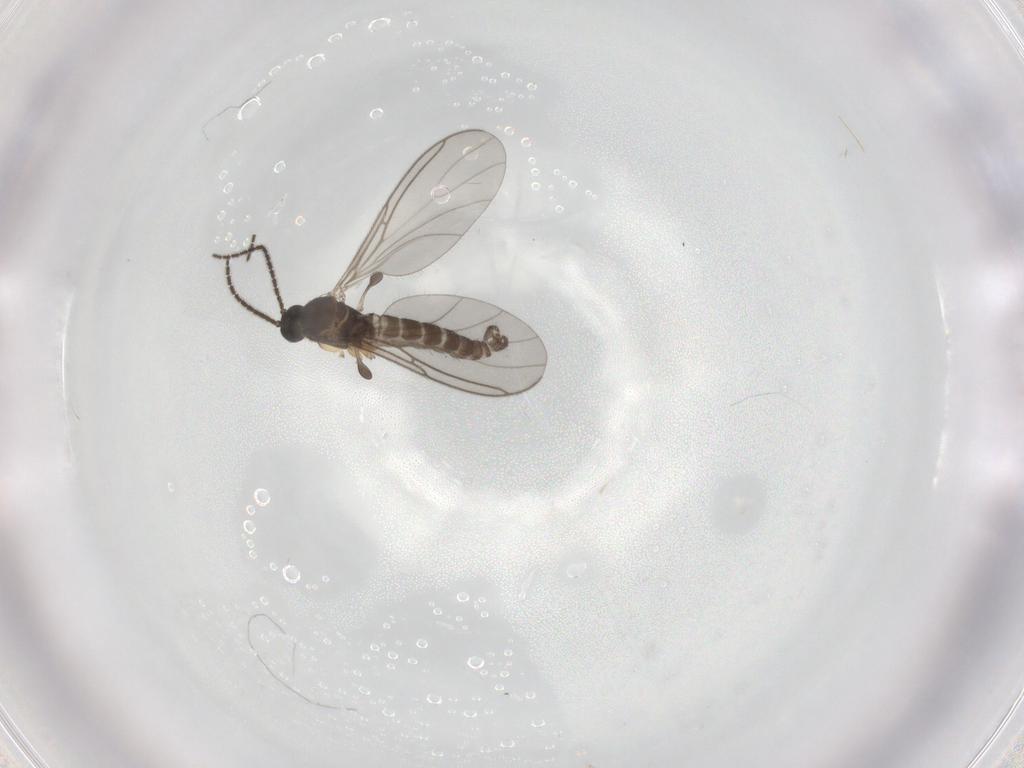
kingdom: Animalia
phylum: Arthropoda
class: Insecta
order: Diptera
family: Sciaridae
